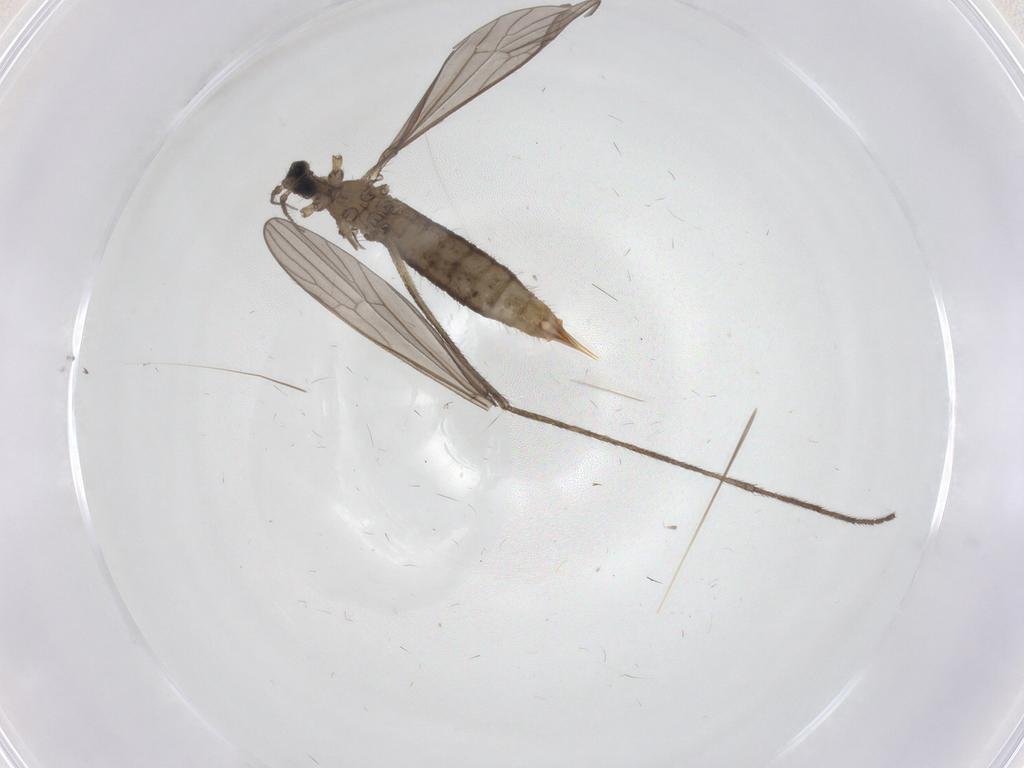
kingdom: Animalia
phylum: Arthropoda
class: Insecta
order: Diptera
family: Limoniidae
